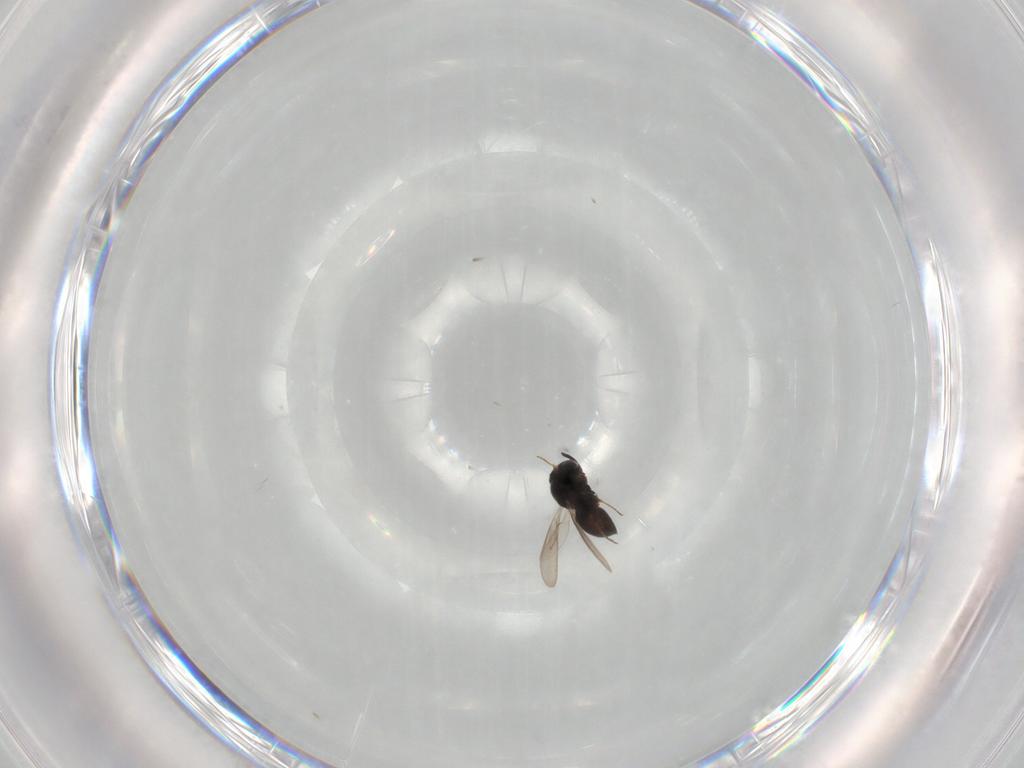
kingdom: Animalia
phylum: Arthropoda
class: Insecta
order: Hymenoptera
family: Scelionidae
